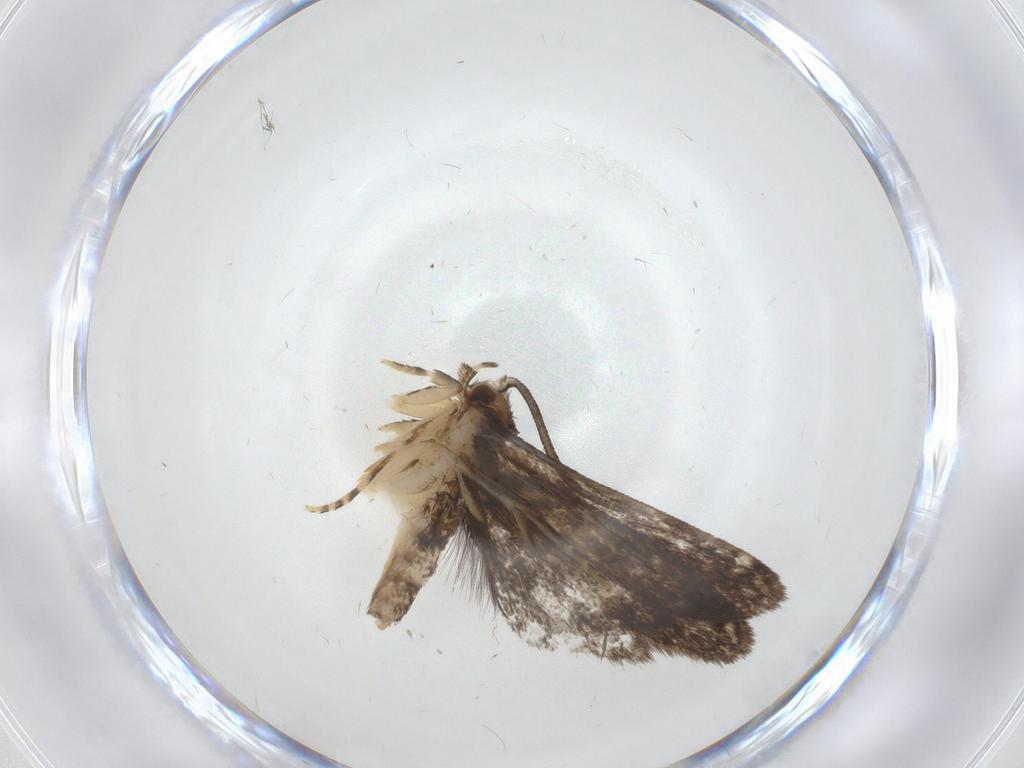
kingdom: Animalia
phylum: Arthropoda
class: Insecta
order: Lepidoptera
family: Dryadaulidae
